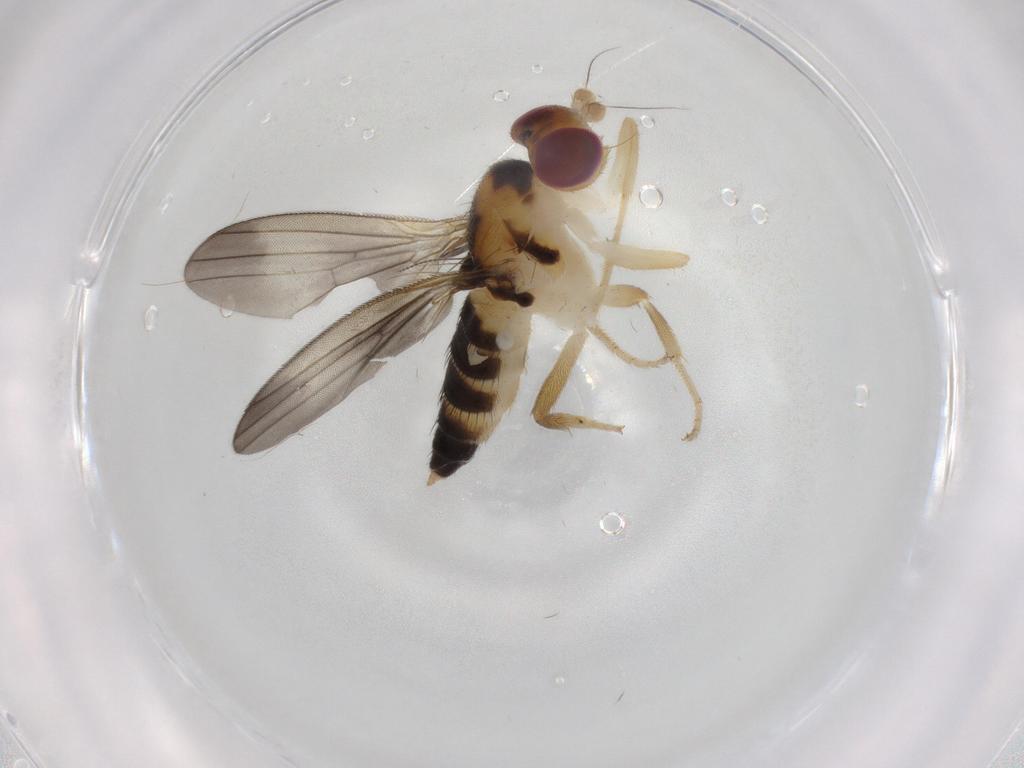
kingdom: Animalia
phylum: Arthropoda
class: Insecta
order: Diptera
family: Clusiidae
